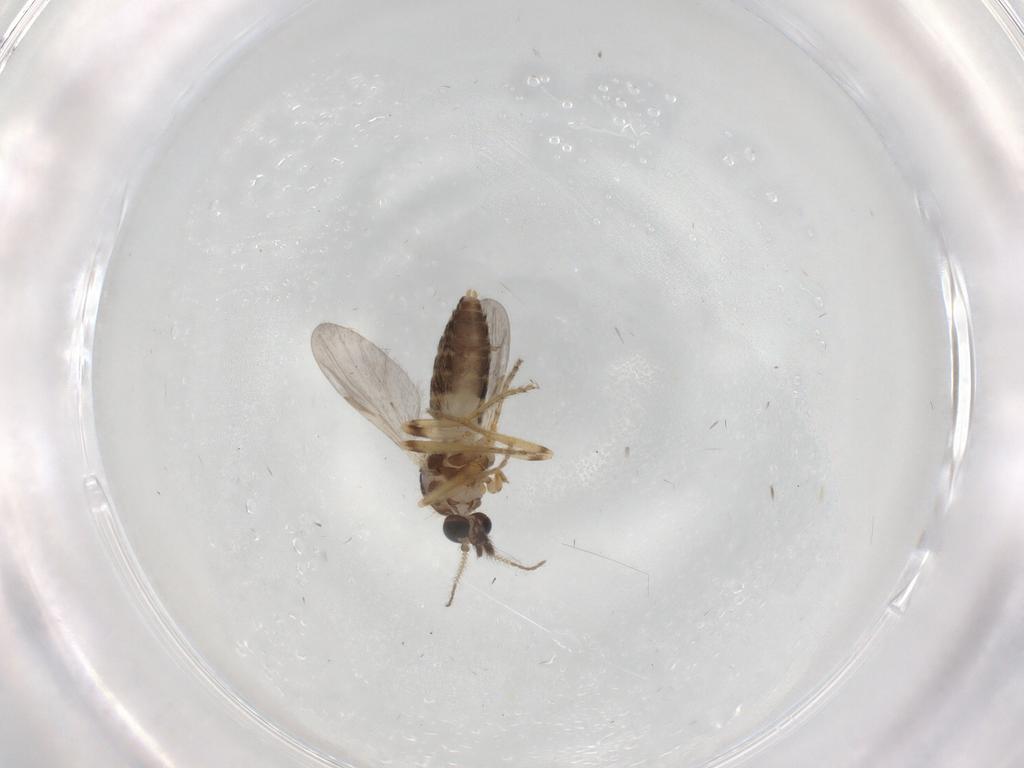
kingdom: Animalia
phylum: Arthropoda
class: Insecta
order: Diptera
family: Ceratopogonidae
